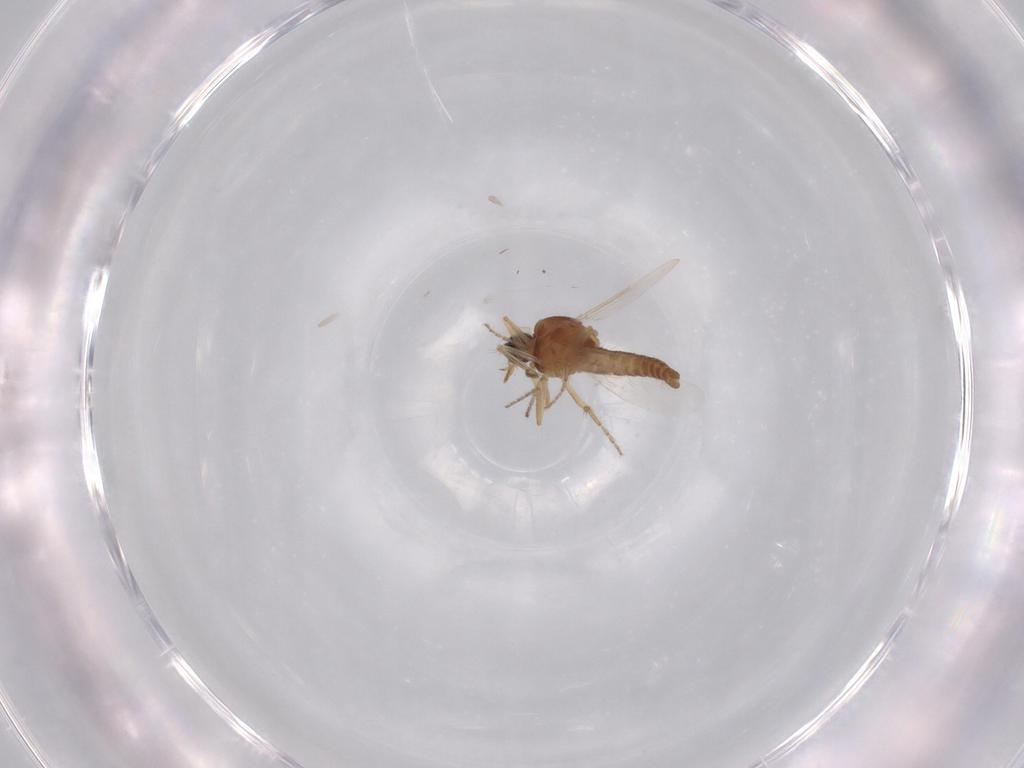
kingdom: Animalia
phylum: Arthropoda
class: Insecta
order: Diptera
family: Ceratopogonidae
